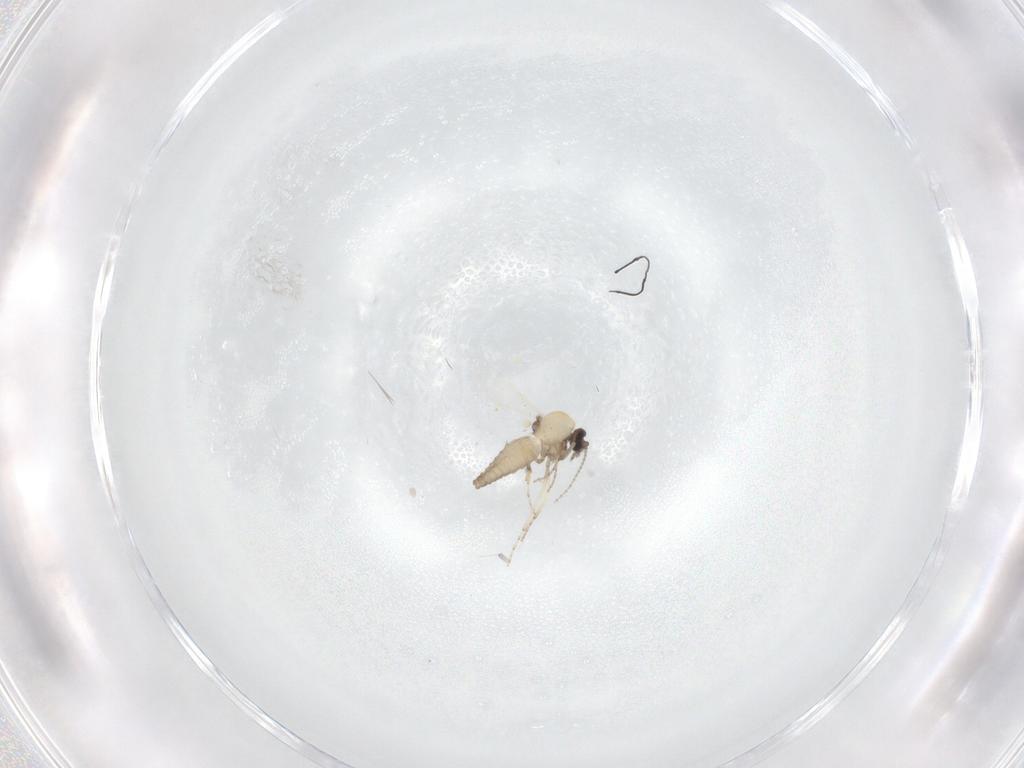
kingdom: Animalia
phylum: Arthropoda
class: Insecta
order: Diptera
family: Ceratopogonidae
